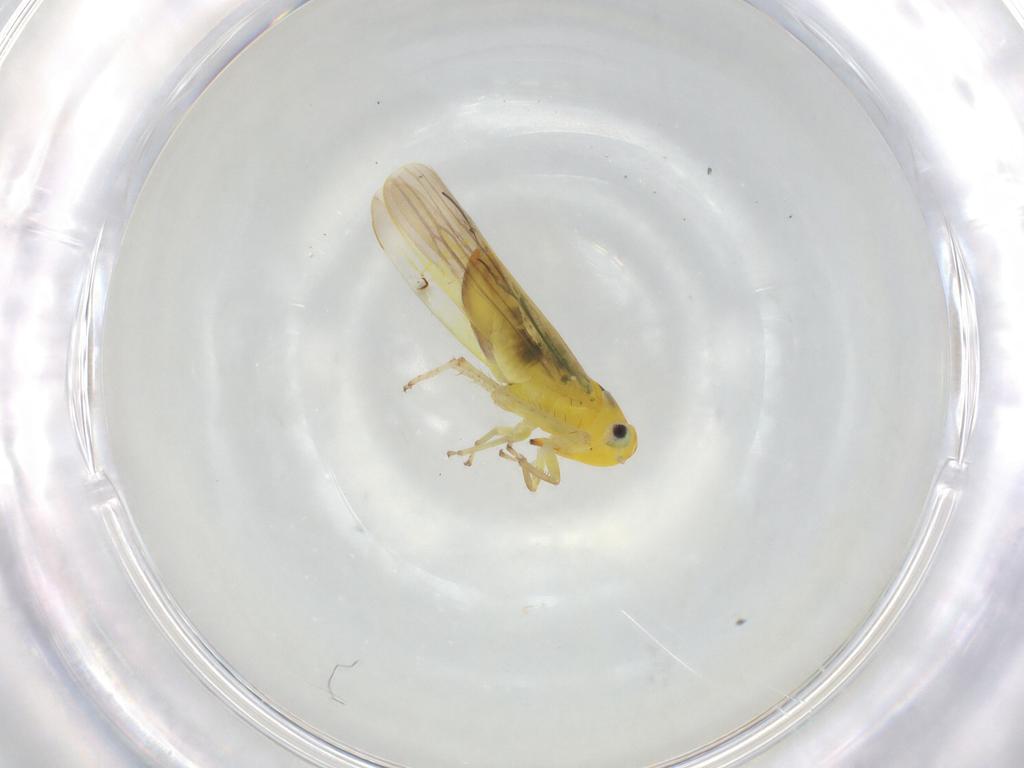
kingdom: Animalia
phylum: Arthropoda
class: Insecta
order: Hemiptera
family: Cicadellidae
